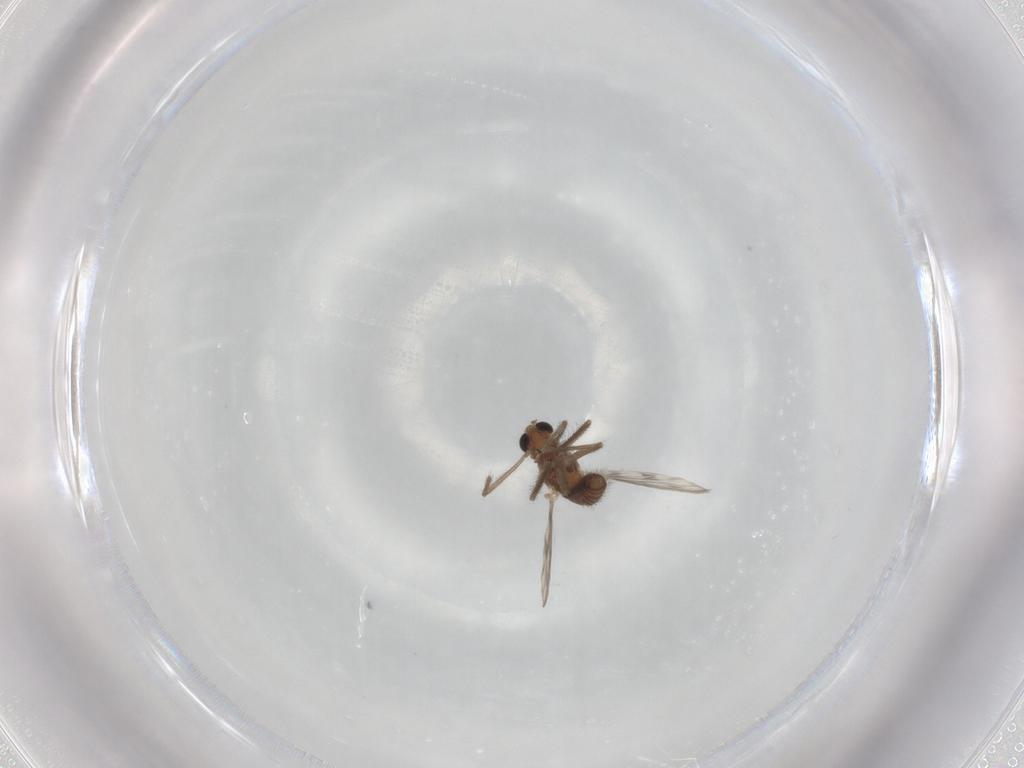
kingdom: Animalia
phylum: Arthropoda
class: Insecta
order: Diptera
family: Chironomidae
